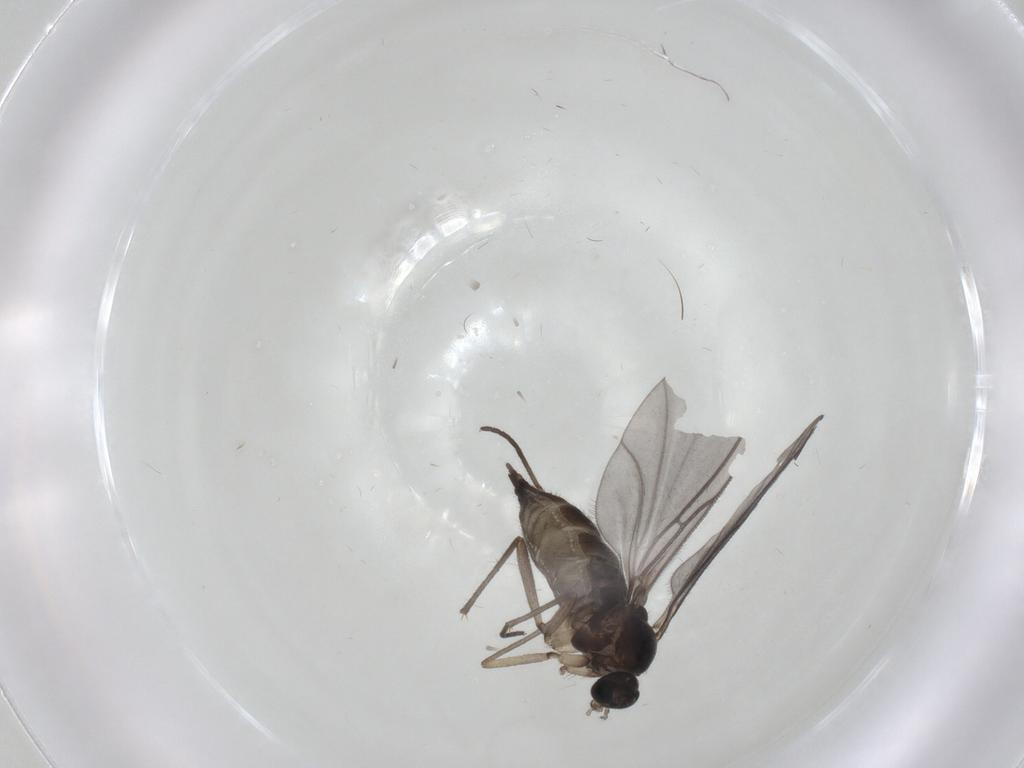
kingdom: Animalia
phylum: Arthropoda
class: Insecta
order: Diptera
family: Sciaridae
